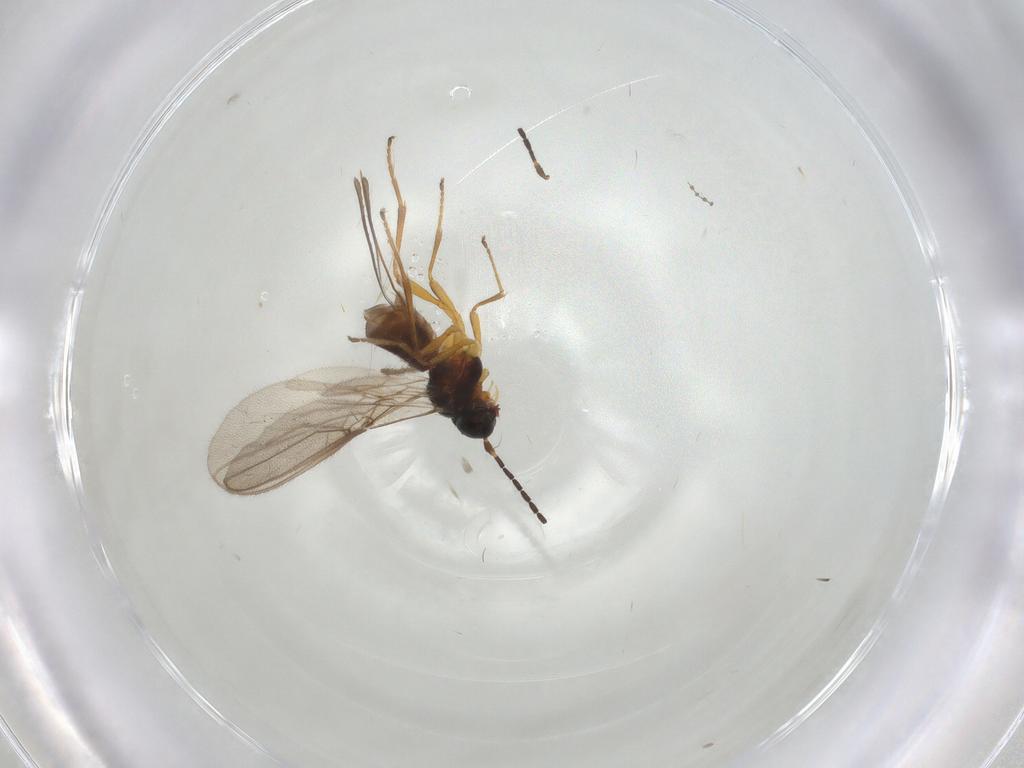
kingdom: Animalia
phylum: Arthropoda
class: Insecta
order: Hymenoptera
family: Braconidae
